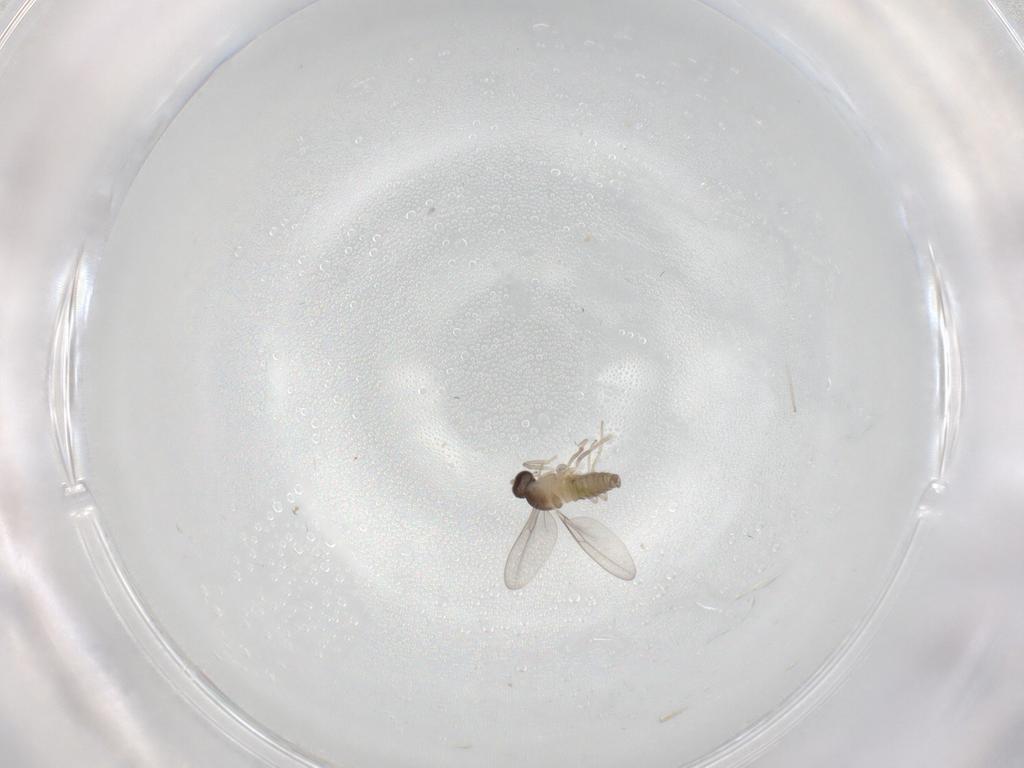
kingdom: Animalia
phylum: Arthropoda
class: Insecta
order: Diptera
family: Cecidomyiidae
